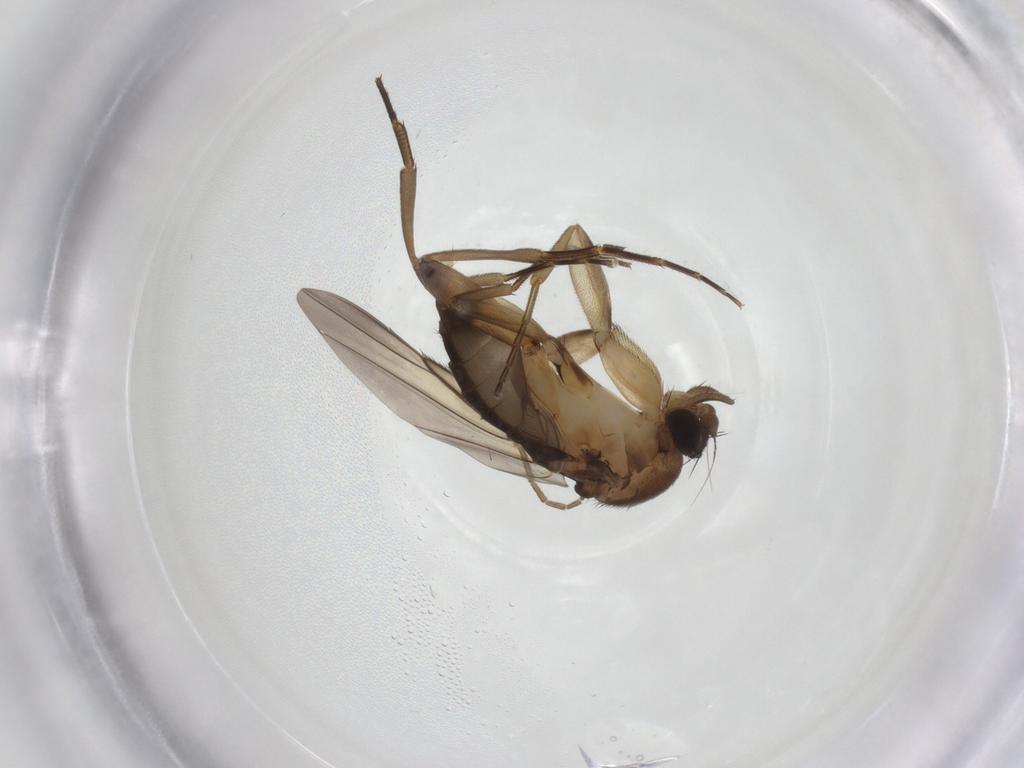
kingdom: Animalia
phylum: Arthropoda
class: Insecta
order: Diptera
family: Phoridae
